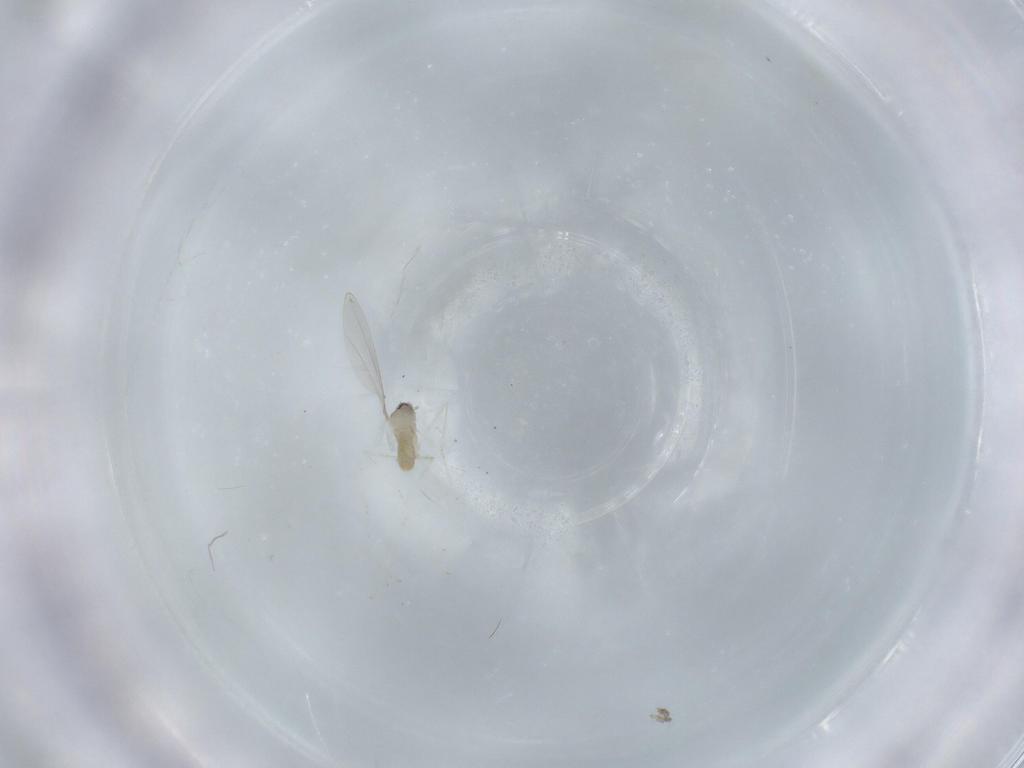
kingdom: Animalia
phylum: Arthropoda
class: Insecta
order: Diptera
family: Cecidomyiidae
